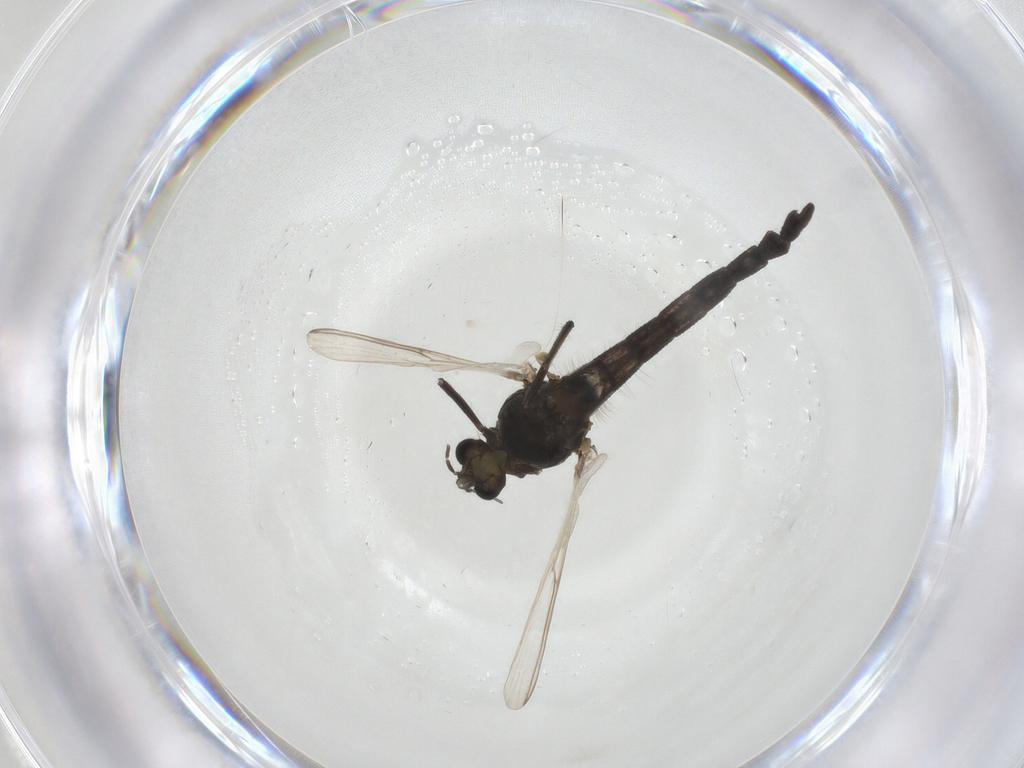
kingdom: Animalia
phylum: Arthropoda
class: Insecta
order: Diptera
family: Chironomidae
